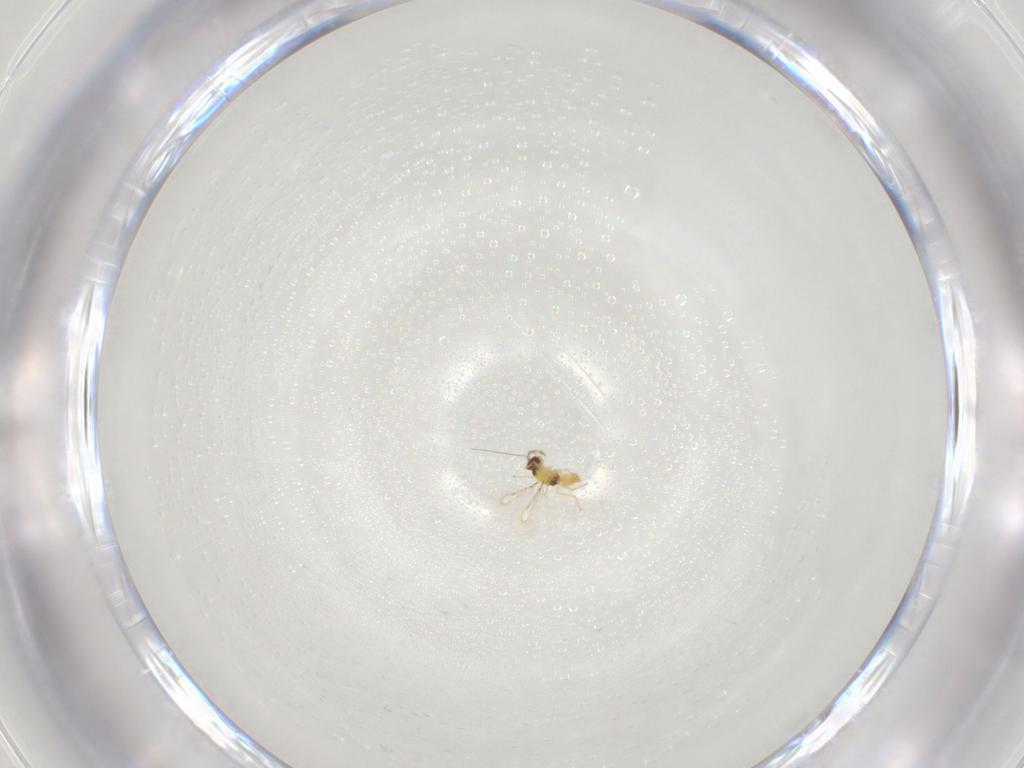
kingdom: Animalia
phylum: Arthropoda
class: Insecta
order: Hymenoptera
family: Eulophidae
